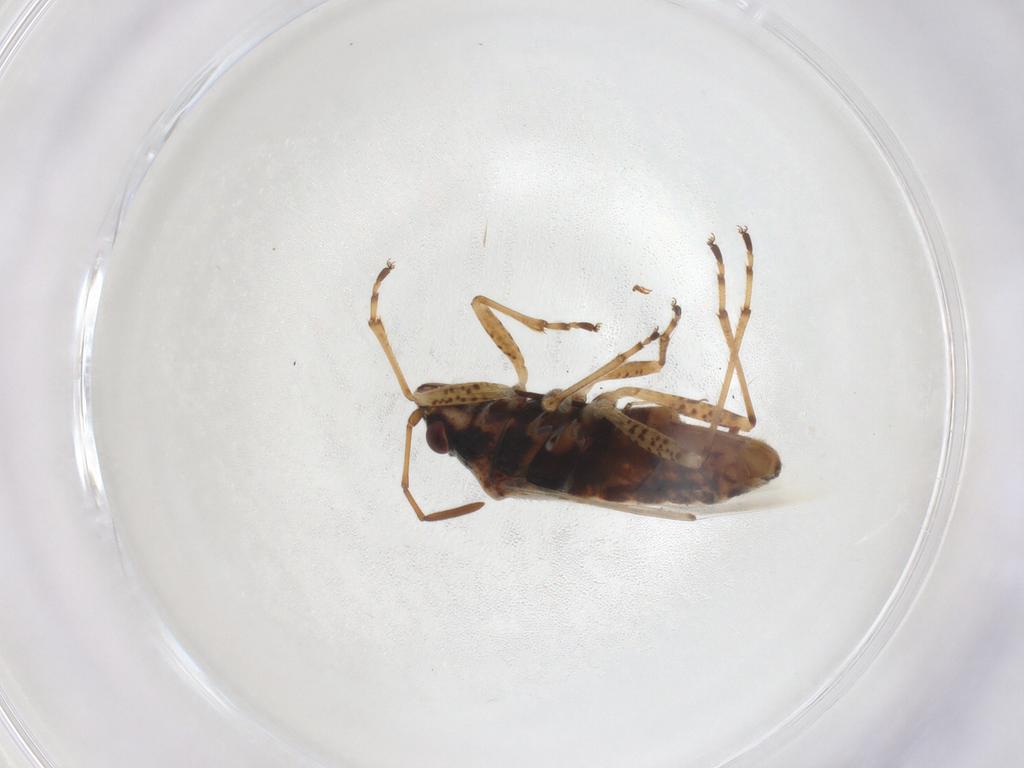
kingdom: Animalia
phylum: Arthropoda
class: Insecta
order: Hemiptera
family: Lygaeidae
